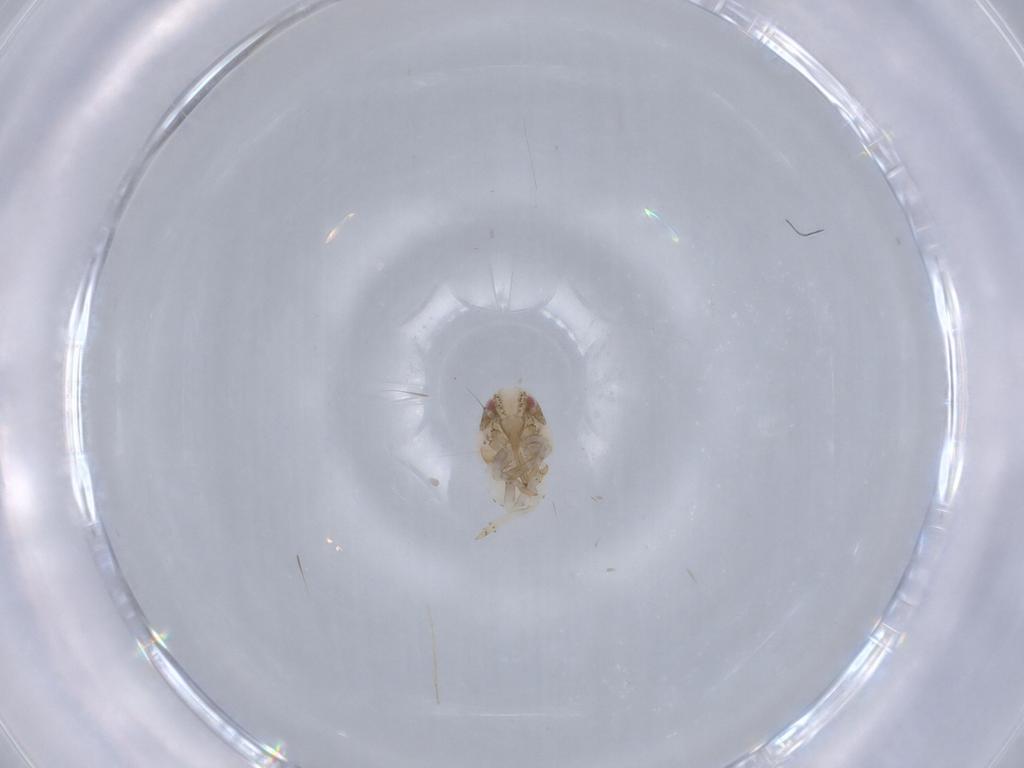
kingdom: Animalia
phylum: Arthropoda
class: Insecta
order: Hemiptera
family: Acanaloniidae
